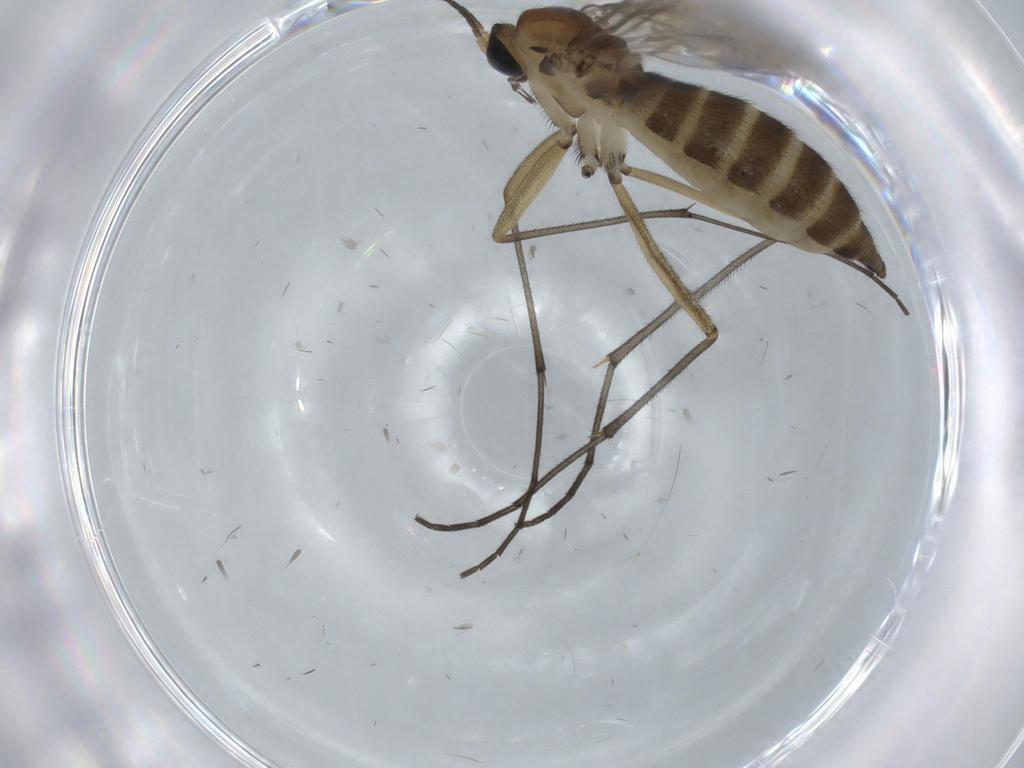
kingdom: Animalia
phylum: Arthropoda
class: Insecta
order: Diptera
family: Sciaridae
